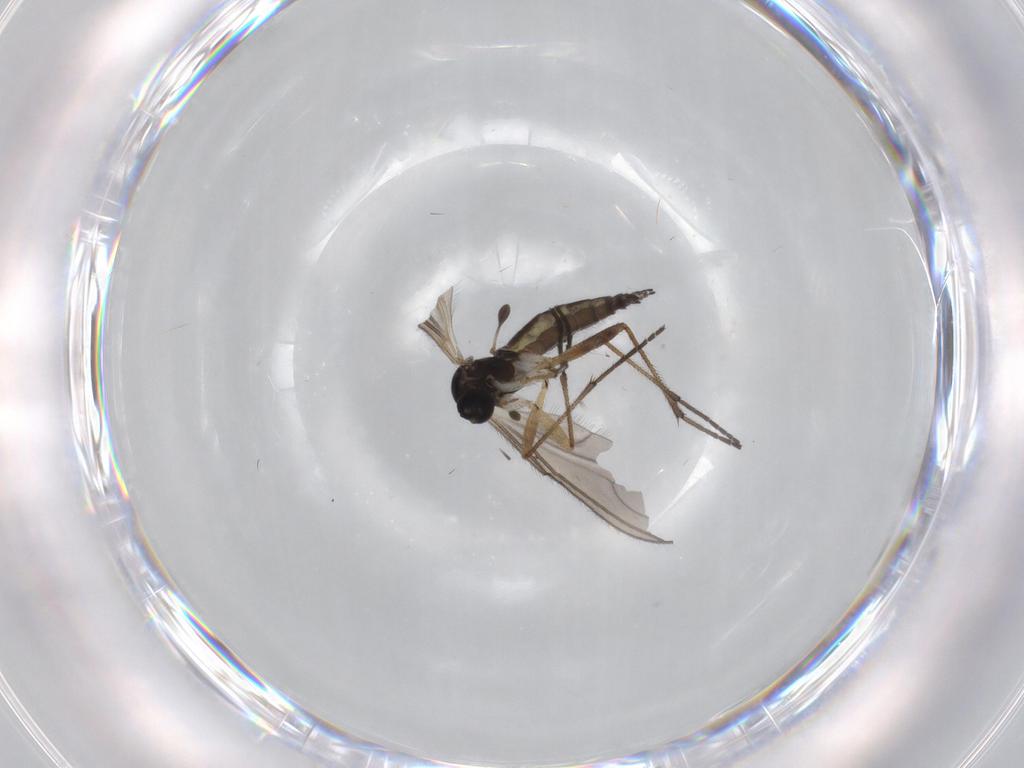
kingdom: Animalia
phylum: Arthropoda
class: Insecta
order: Diptera
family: Sciaridae
